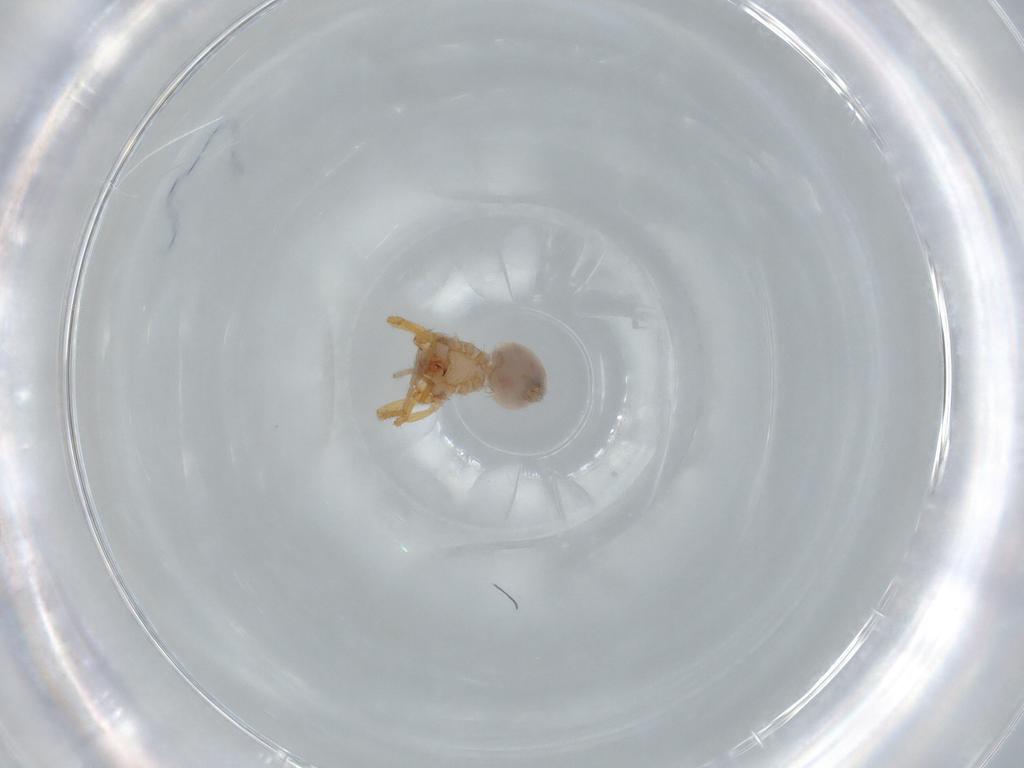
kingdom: Animalia
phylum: Arthropoda
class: Arachnida
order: Araneae
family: Oonopidae
